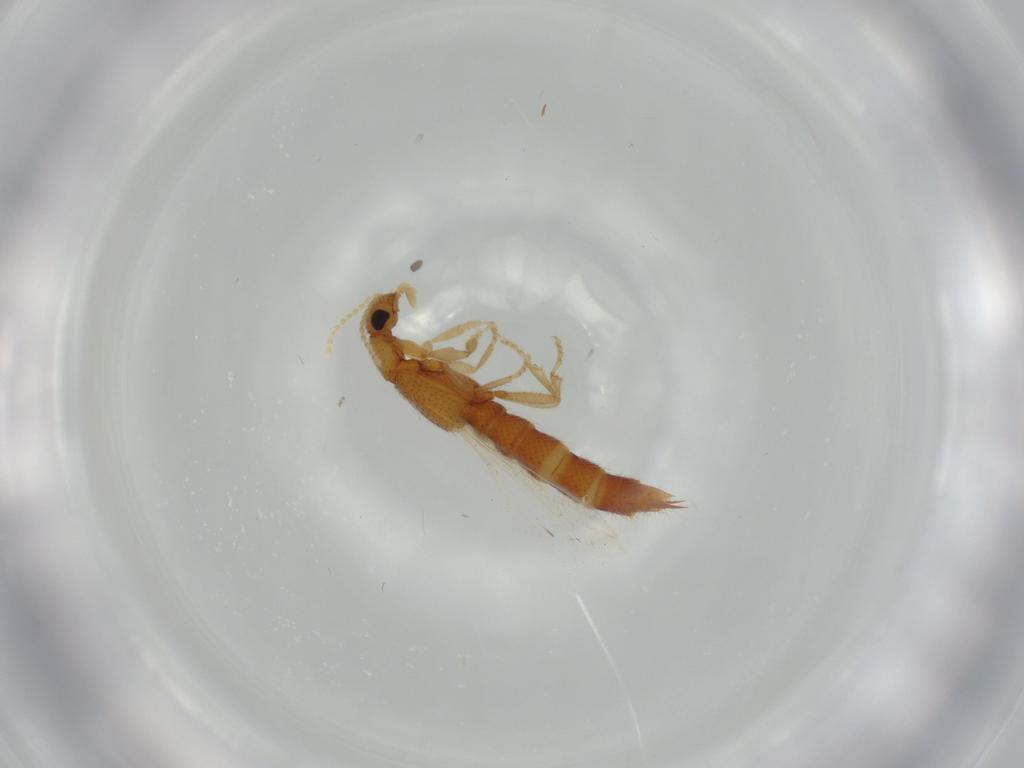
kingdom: Animalia
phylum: Arthropoda
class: Insecta
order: Coleoptera
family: Staphylinidae
